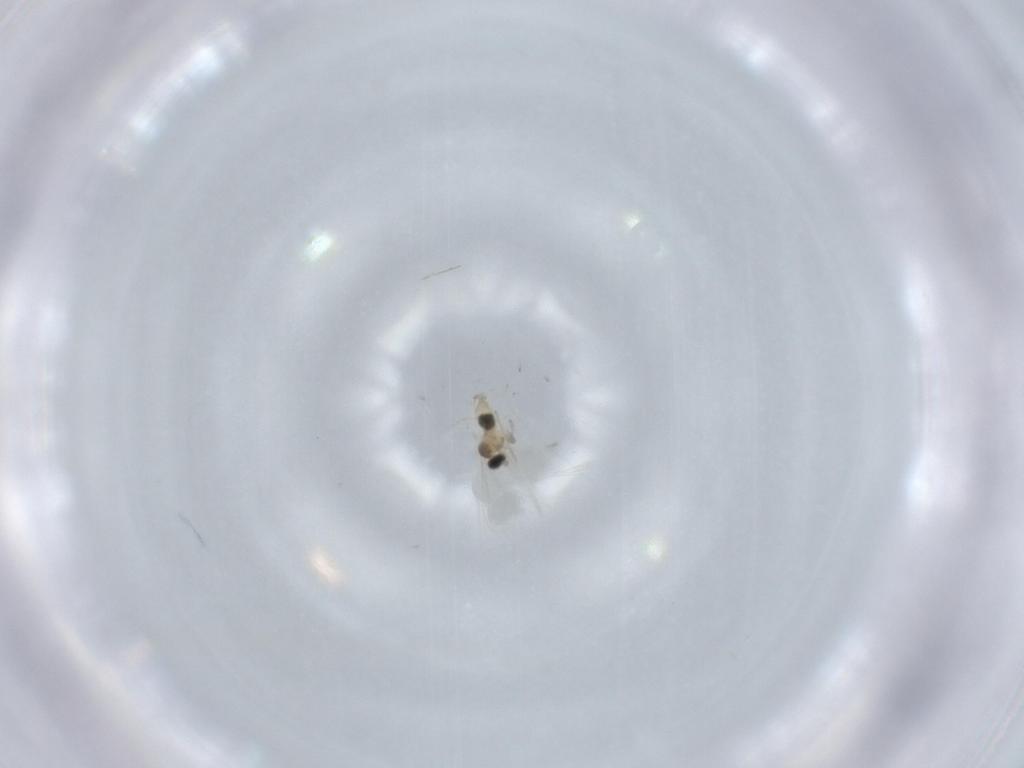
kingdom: Animalia
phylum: Arthropoda
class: Insecta
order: Diptera
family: Cecidomyiidae
